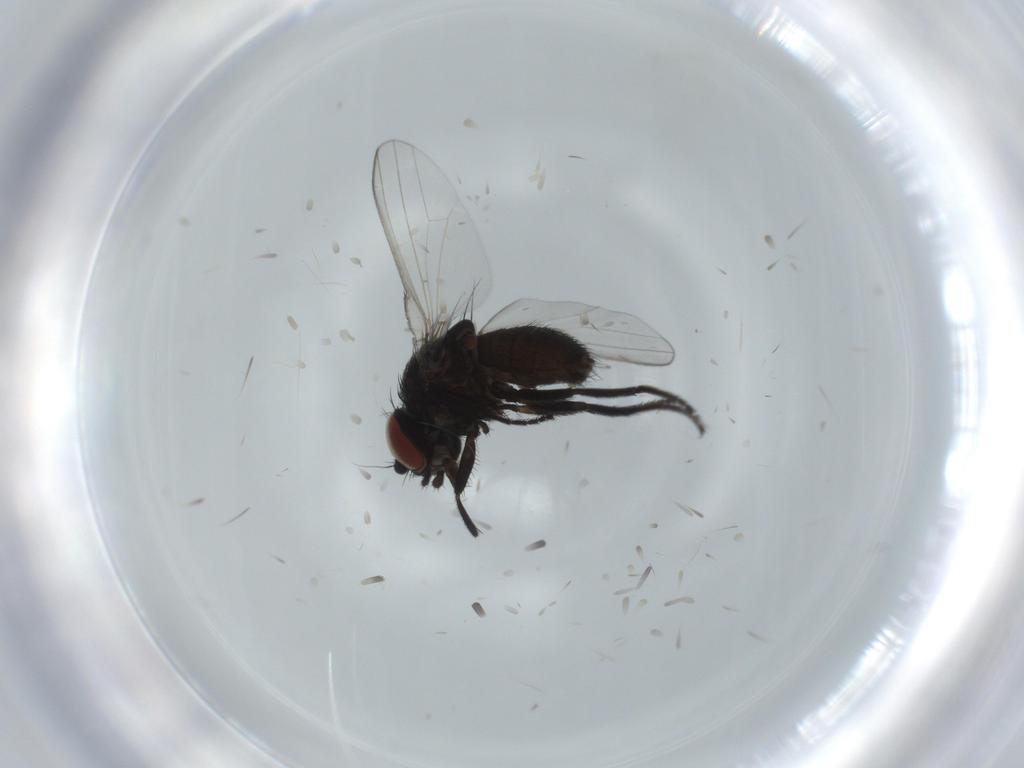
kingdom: Animalia
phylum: Arthropoda
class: Insecta
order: Diptera
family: Milichiidae
